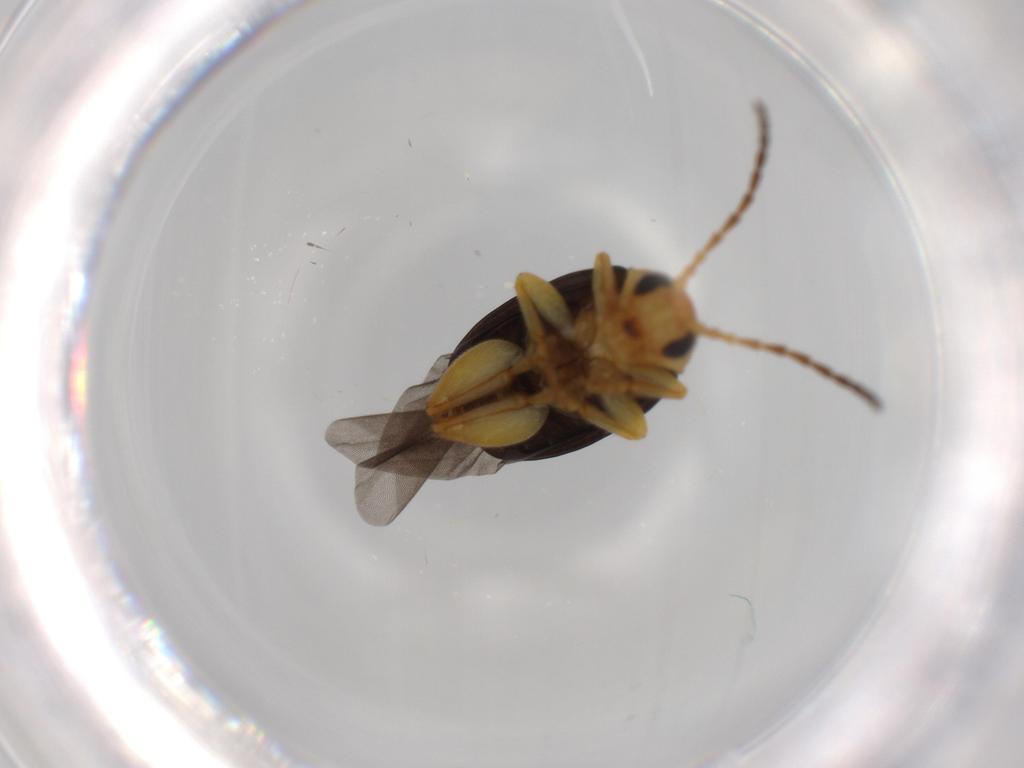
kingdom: Animalia
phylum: Arthropoda
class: Insecta
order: Coleoptera
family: Chrysomelidae
